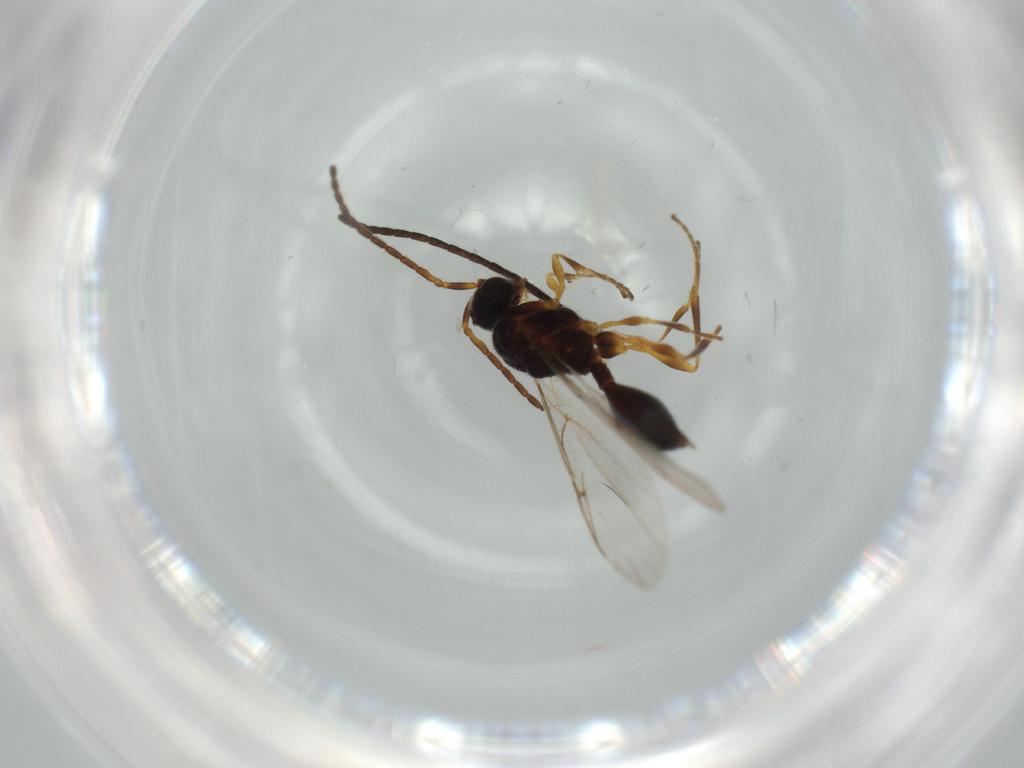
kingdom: Animalia
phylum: Arthropoda
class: Insecta
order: Hymenoptera
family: Braconidae
